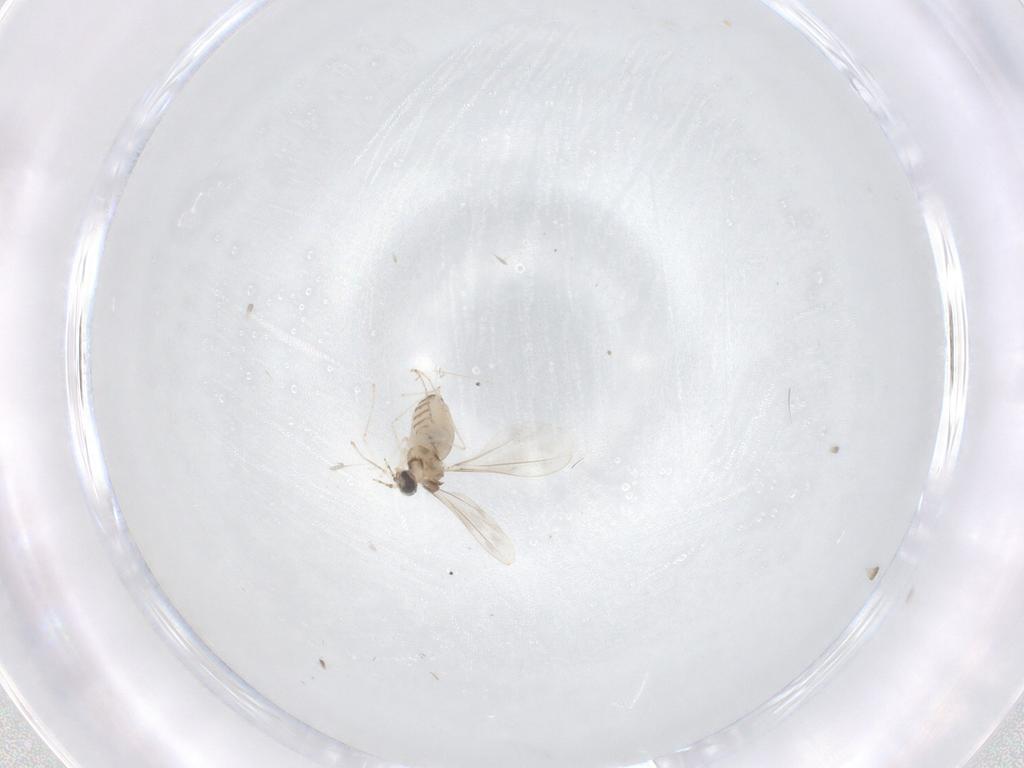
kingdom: Animalia
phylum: Arthropoda
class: Insecta
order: Diptera
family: Cecidomyiidae
